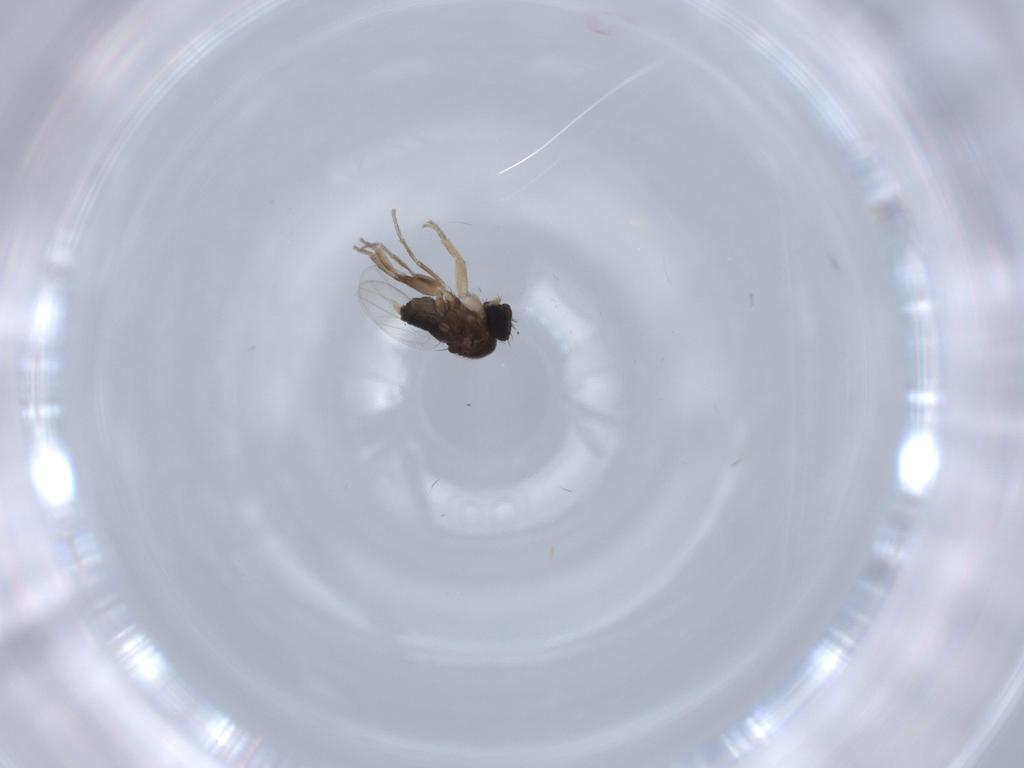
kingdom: Animalia
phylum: Arthropoda
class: Insecta
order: Diptera
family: Phoridae
